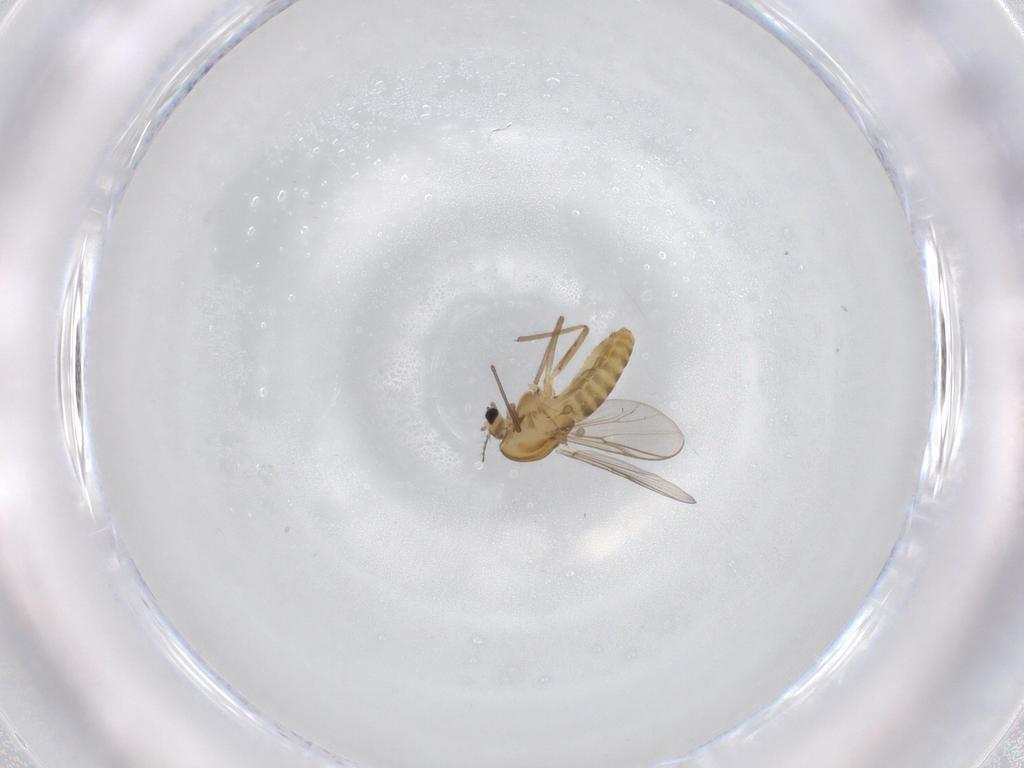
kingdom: Animalia
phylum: Arthropoda
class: Insecta
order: Diptera
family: Chironomidae
